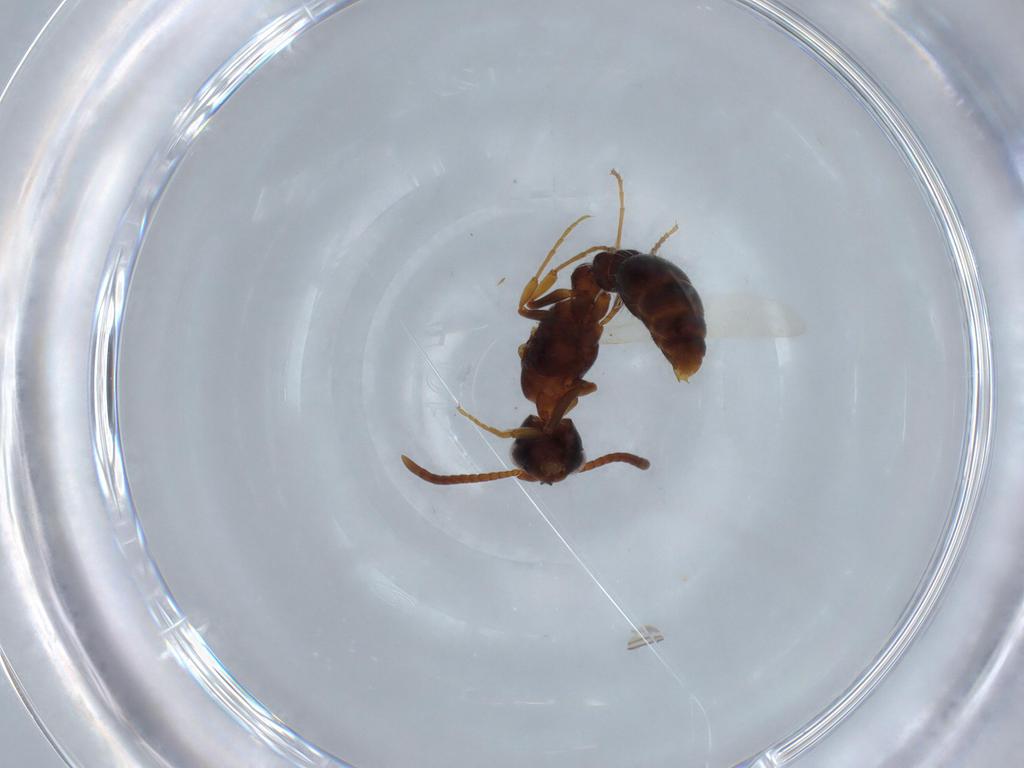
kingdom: Animalia
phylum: Arthropoda
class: Insecta
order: Hymenoptera
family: Formicidae
